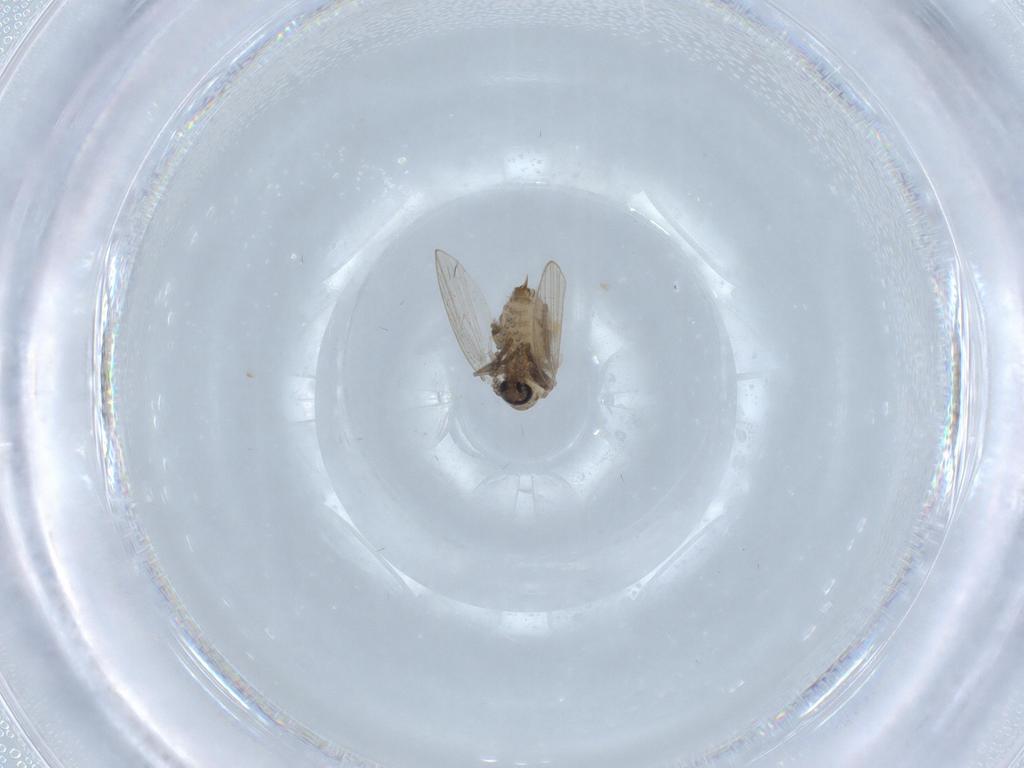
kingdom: Animalia
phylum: Arthropoda
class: Insecta
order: Diptera
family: Psychodidae
